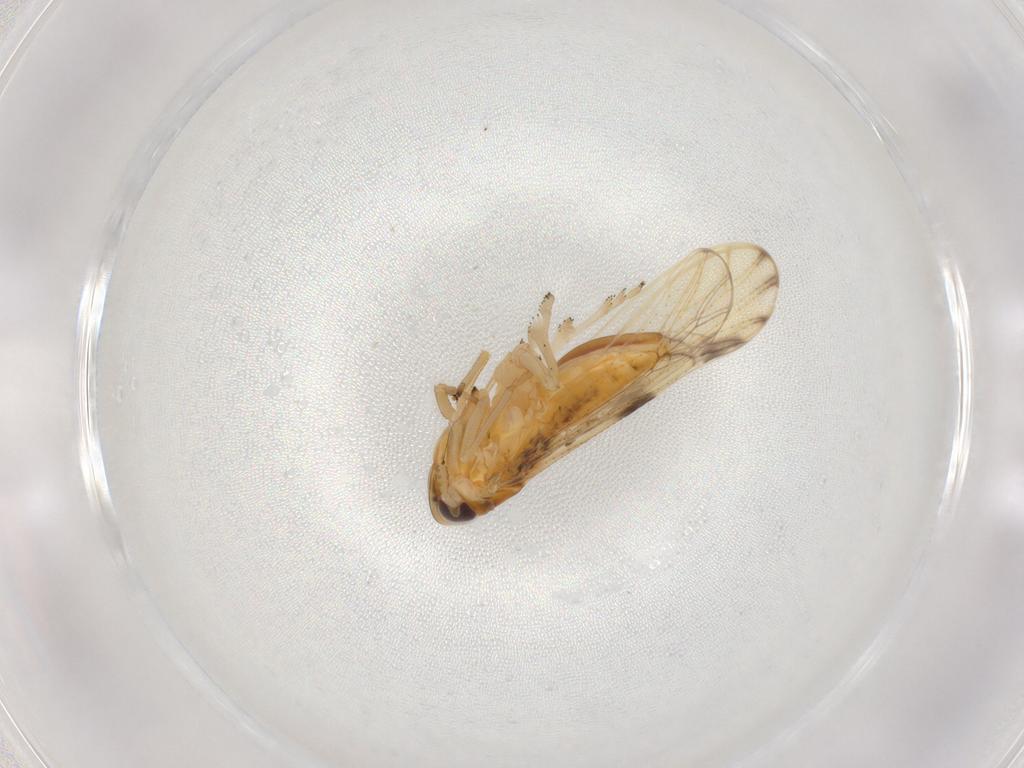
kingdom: Animalia
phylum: Arthropoda
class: Insecta
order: Hemiptera
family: Delphacidae
